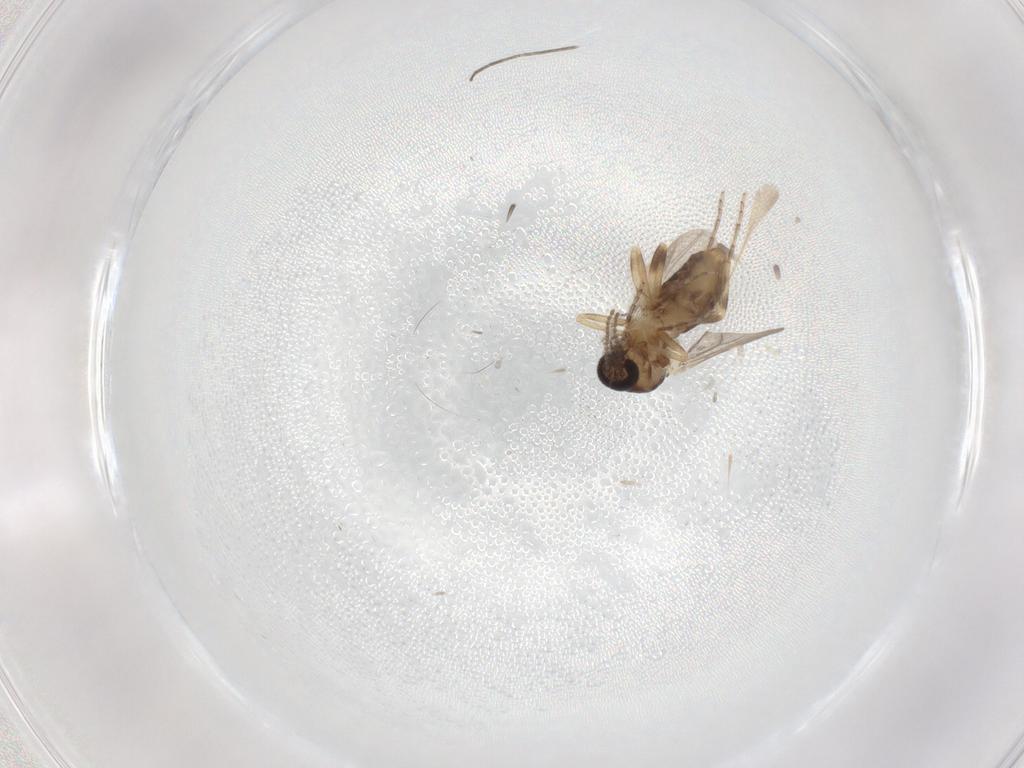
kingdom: Animalia
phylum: Arthropoda
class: Insecta
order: Diptera
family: Ceratopogonidae
